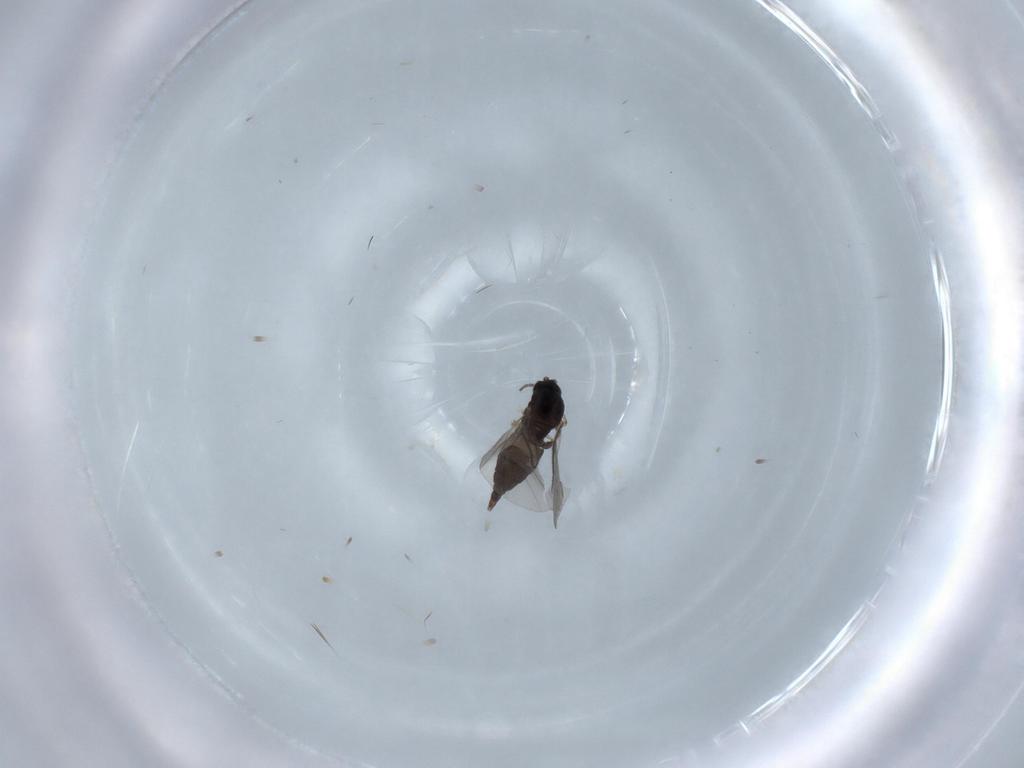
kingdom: Animalia
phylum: Arthropoda
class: Insecta
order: Diptera
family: Sciaridae
